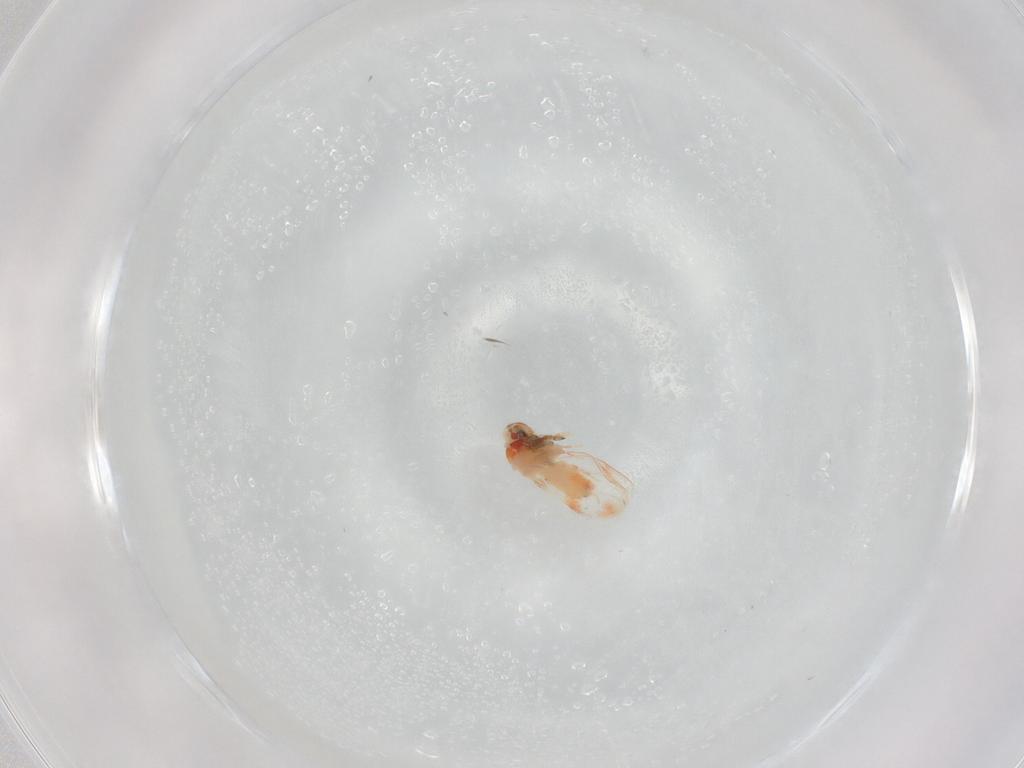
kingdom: Animalia
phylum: Arthropoda
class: Insecta
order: Hemiptera
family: Aleyrodidae
